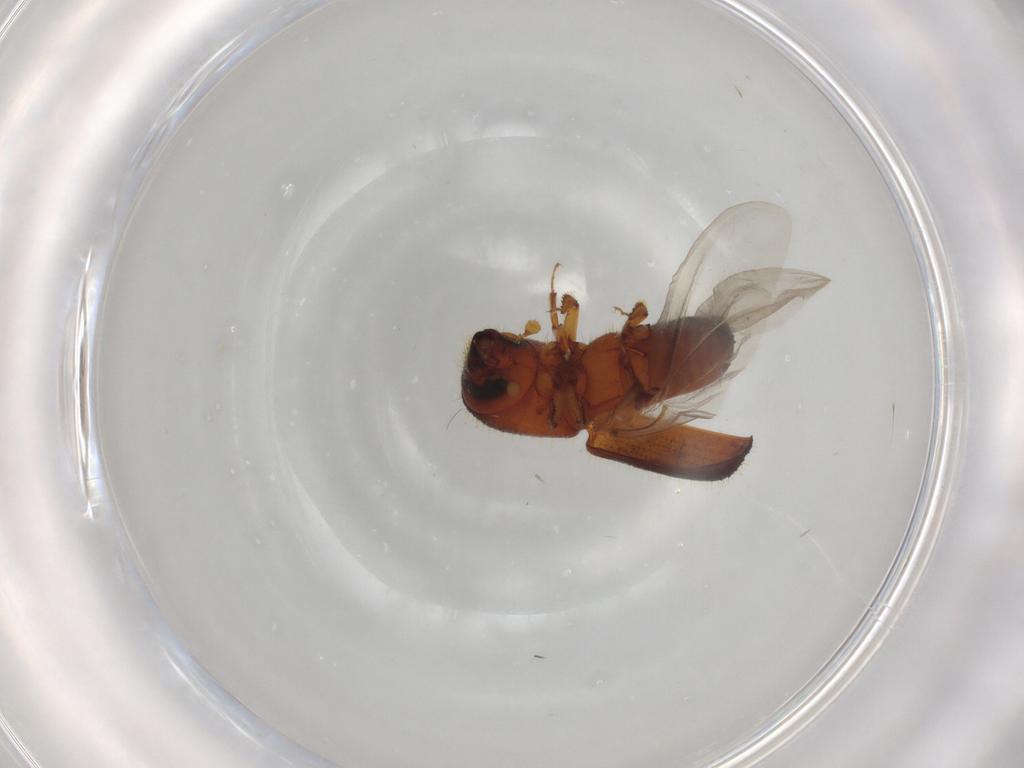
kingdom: Animalia
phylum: Arthropoda
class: Insecta
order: Coleoptera
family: Curculionidae
